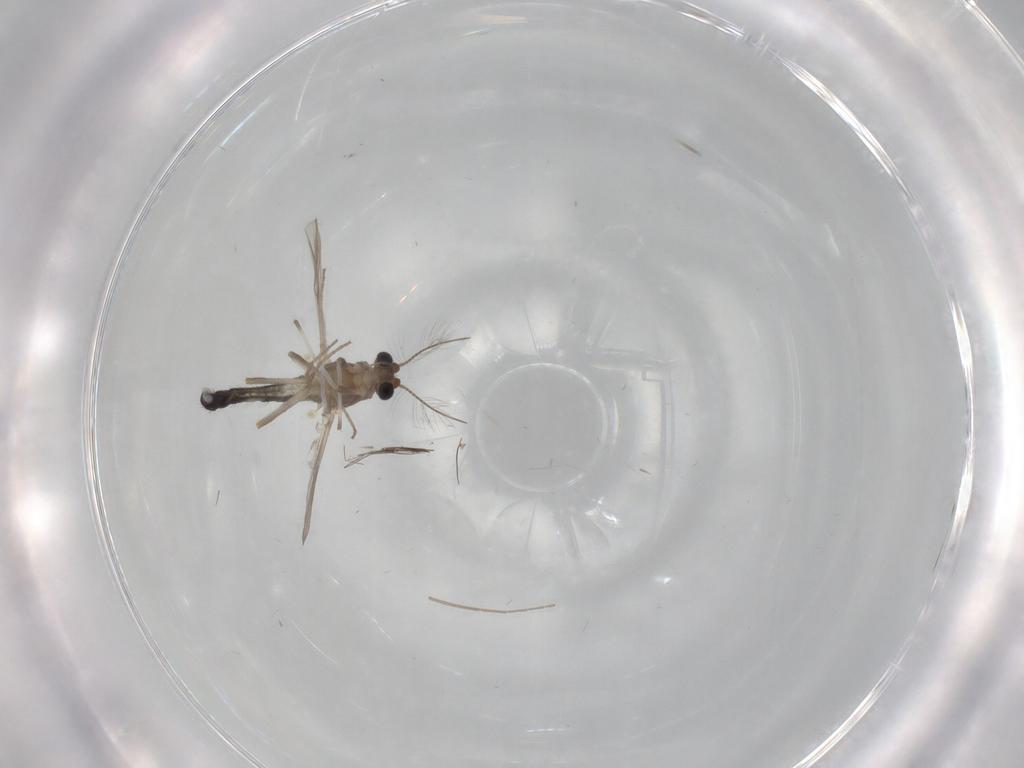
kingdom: Animalia
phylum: Arthropoda
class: Insecta
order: Diptera
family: Chironomidae
